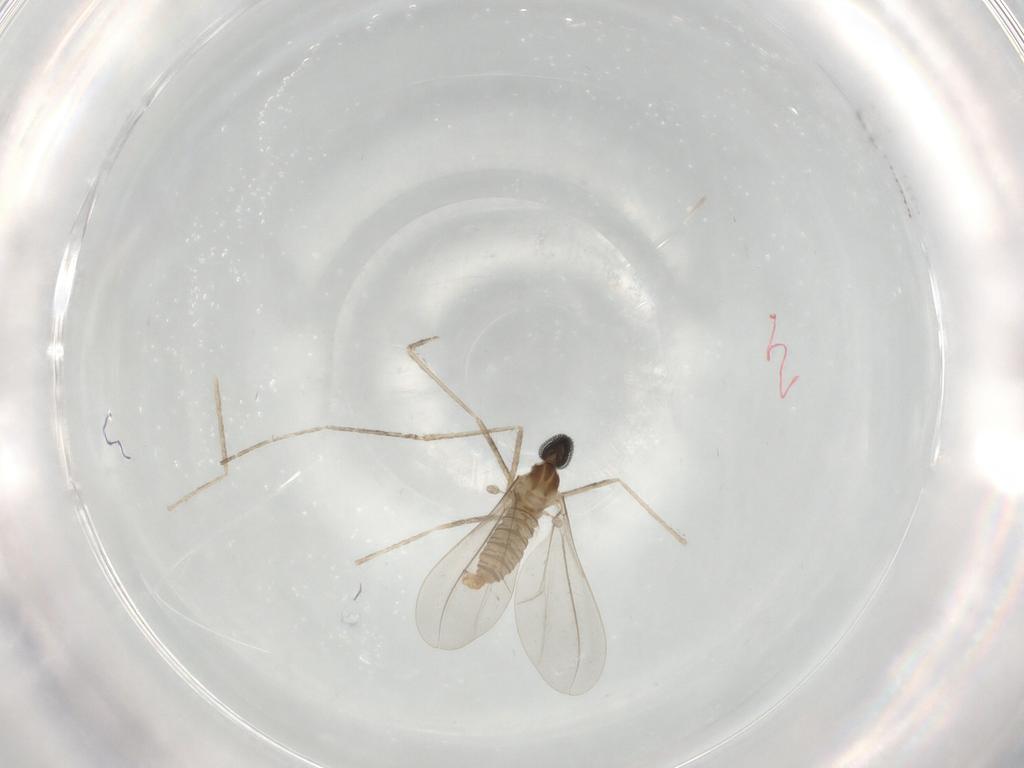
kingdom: Animalia
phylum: Arthropoda
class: Insecta
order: Diptera
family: Cecidomyiidae
